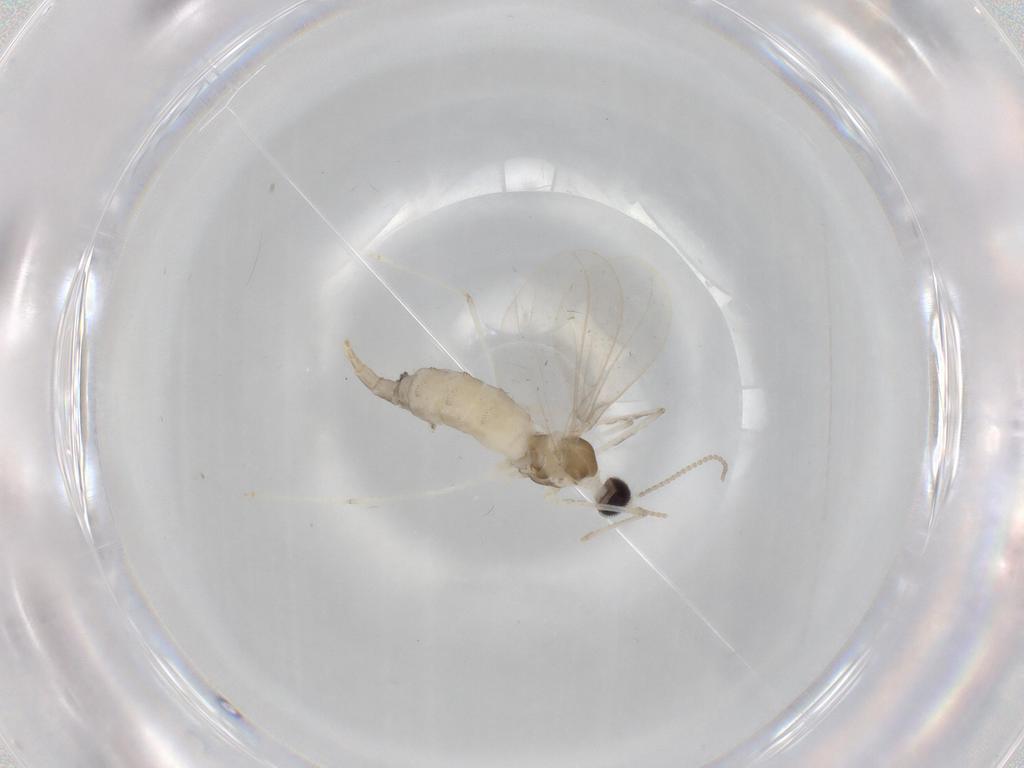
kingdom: Animalia
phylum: Arthropoda
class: Insecta
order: Diptera
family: Cecidomyiidae
